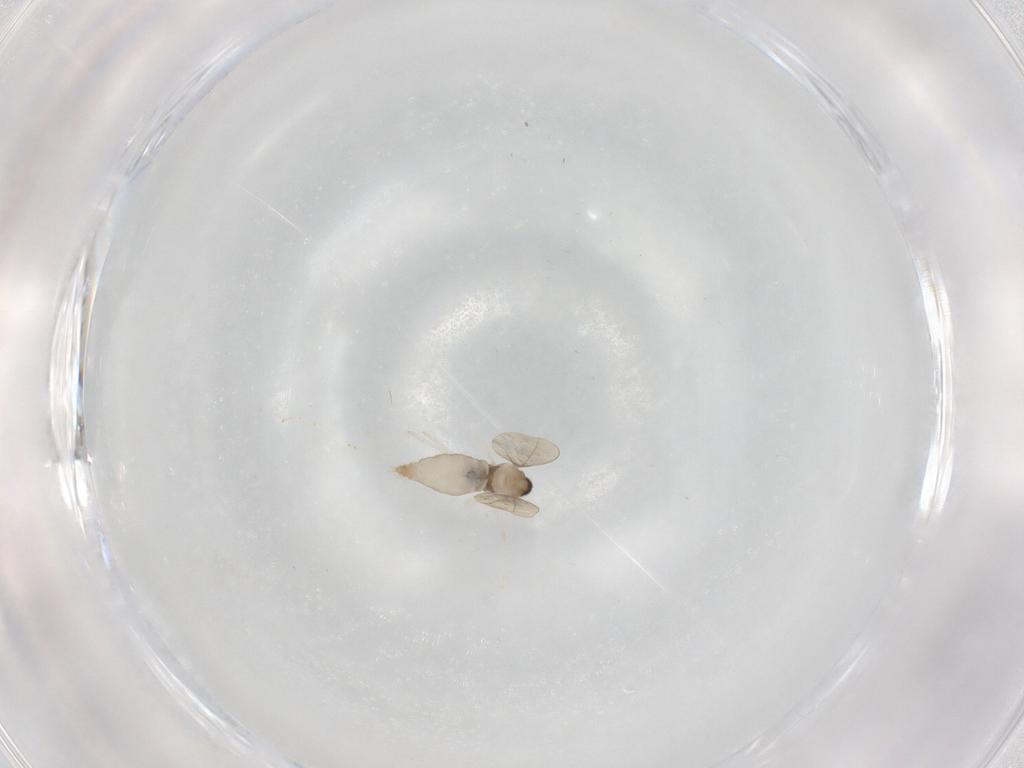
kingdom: Animalia
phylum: Arthropoda
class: Insecta
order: Diptera
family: Cecidomyiidae
